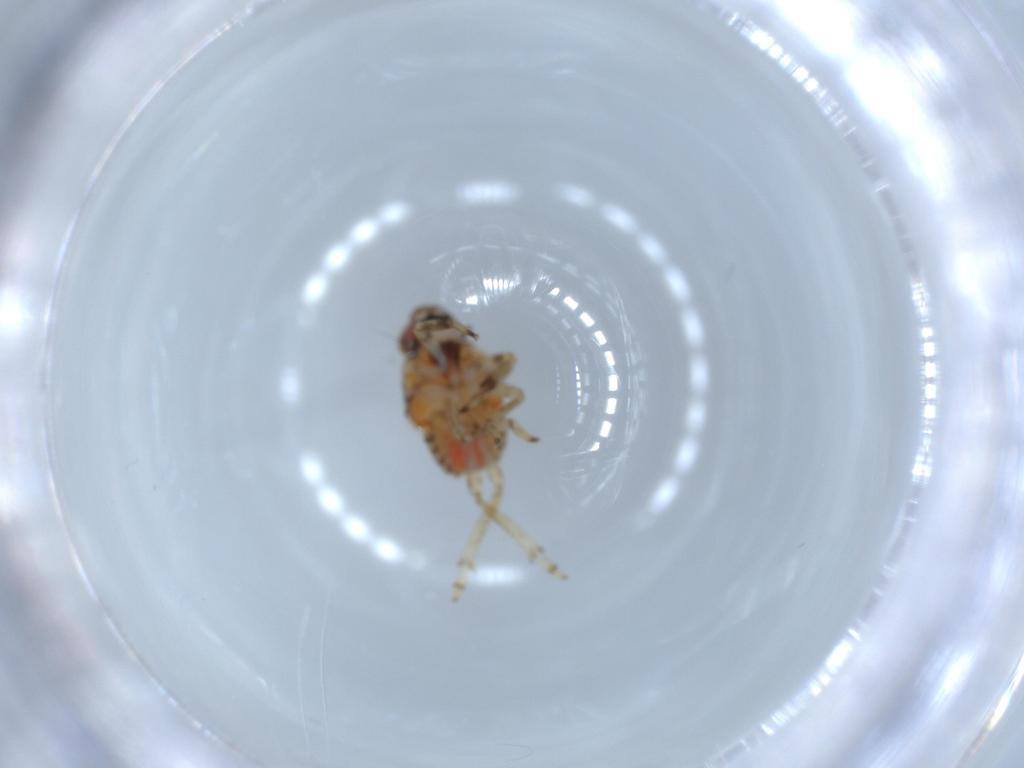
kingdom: Animalia
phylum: Arthropoda
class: Insecta
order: Hemiptera
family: Issidae
